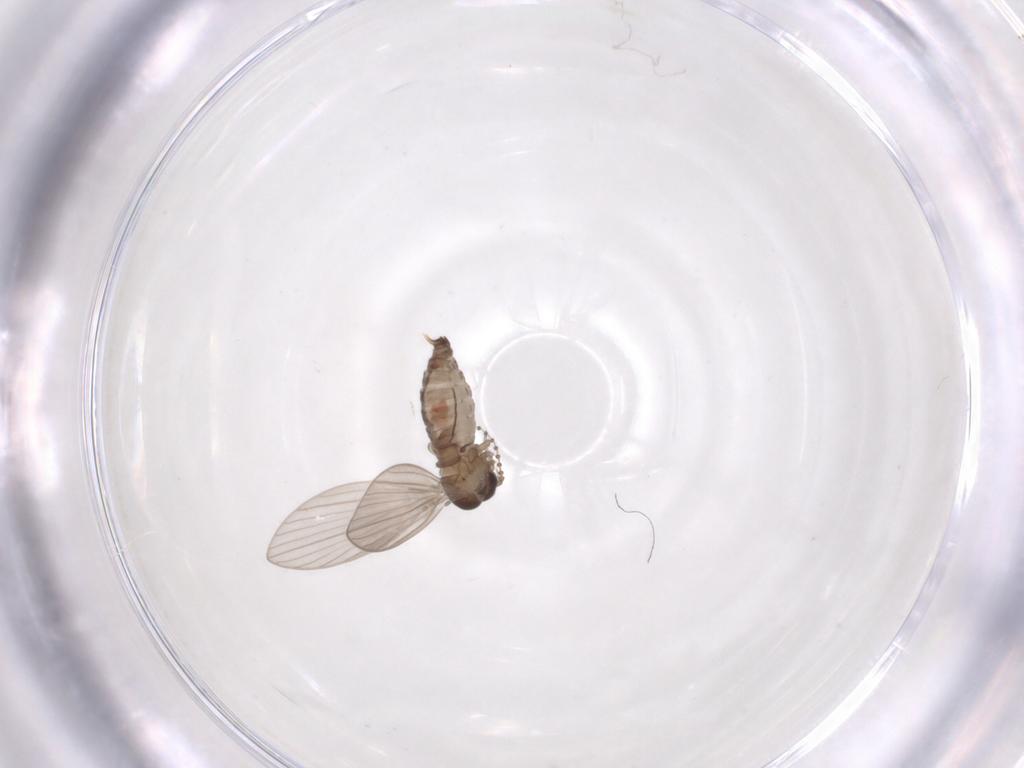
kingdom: Animalia
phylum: Arthropoda
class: Insecta
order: Diptera
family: Psychodidae
